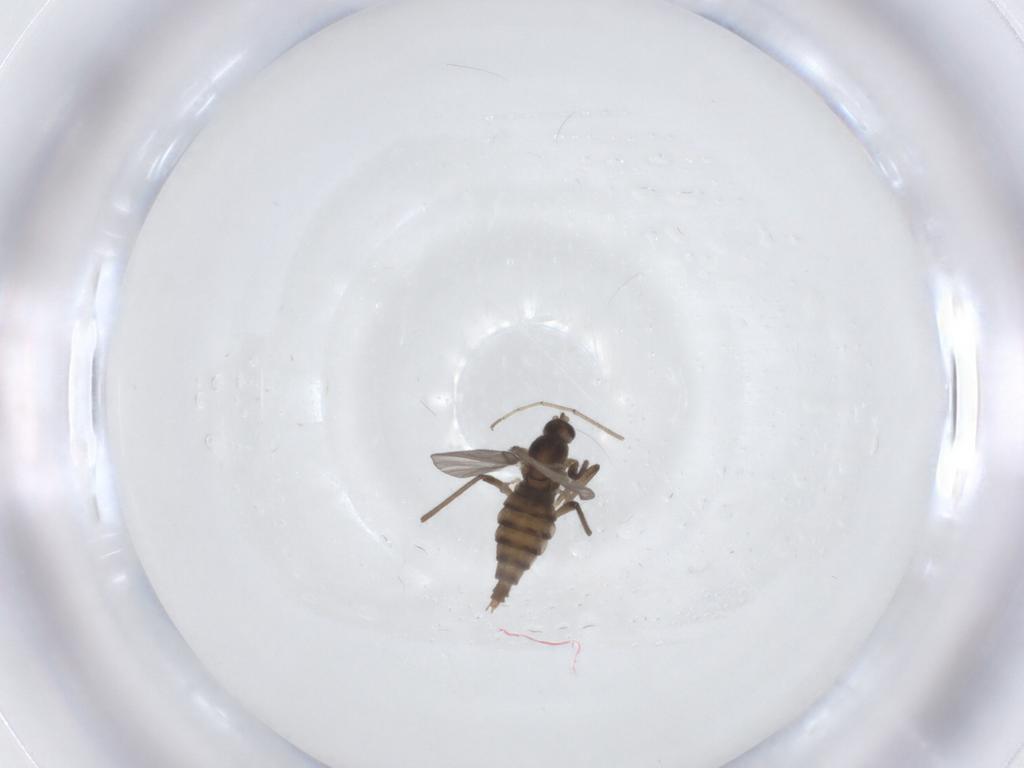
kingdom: Animalia
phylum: Arthropoda
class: Insecta
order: Diptera
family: Cecidomyiidae
